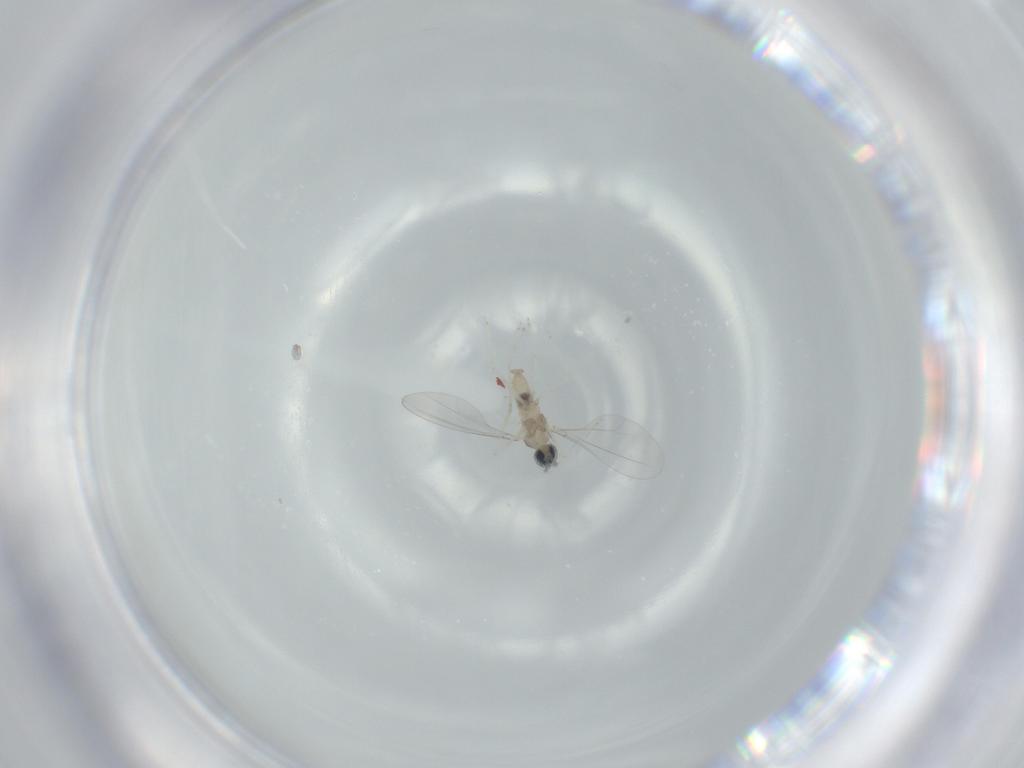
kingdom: Animalia
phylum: Arthropoda
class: Insecta
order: Diptera
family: Cecidomyiidae
